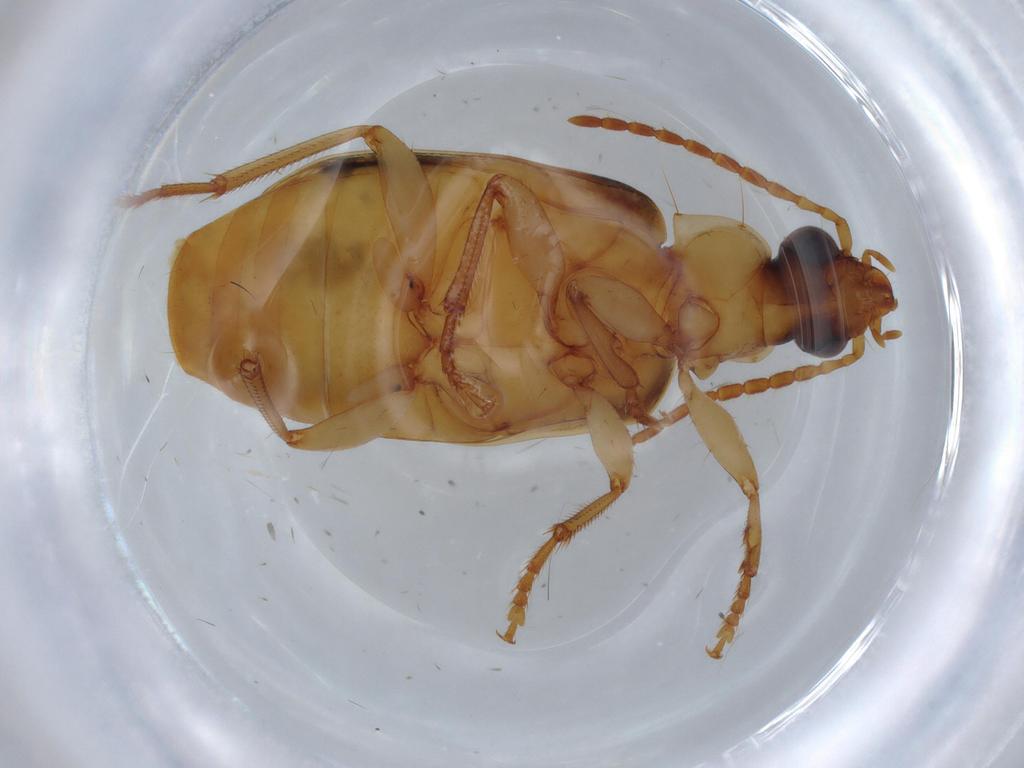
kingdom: Animalia
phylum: Arthropoda
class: Insecta
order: Coleoptera
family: Carabidae
